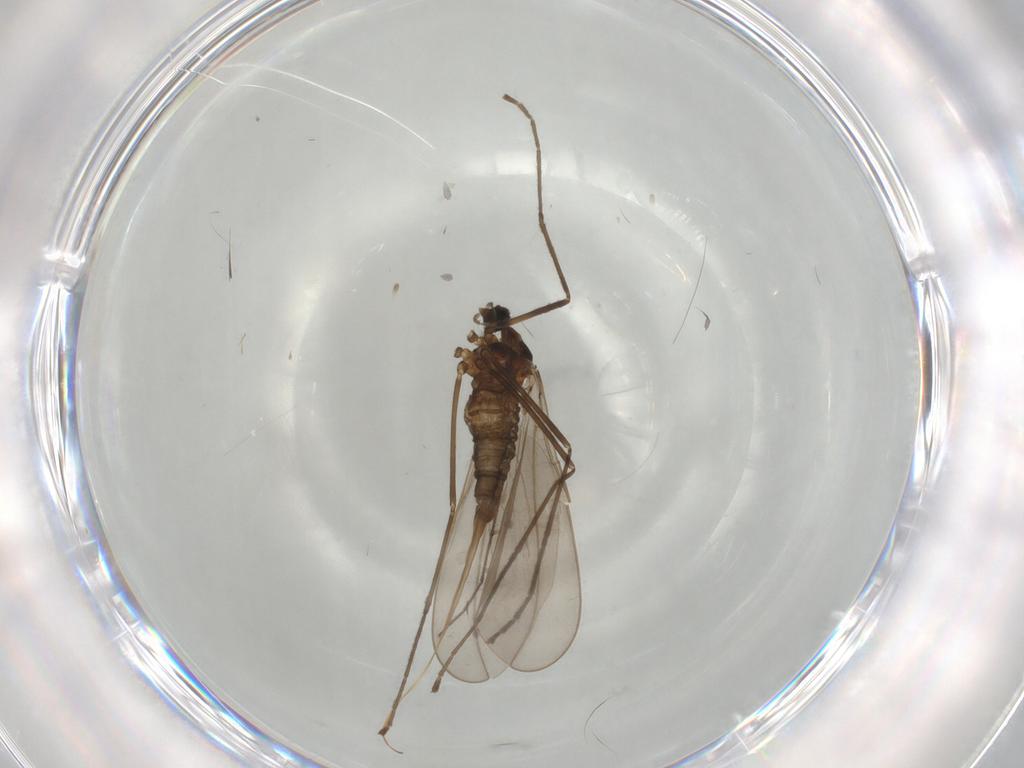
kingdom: Animalia
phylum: Arthropoda
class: Insecta
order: Diptera
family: Cecidomyiidae
